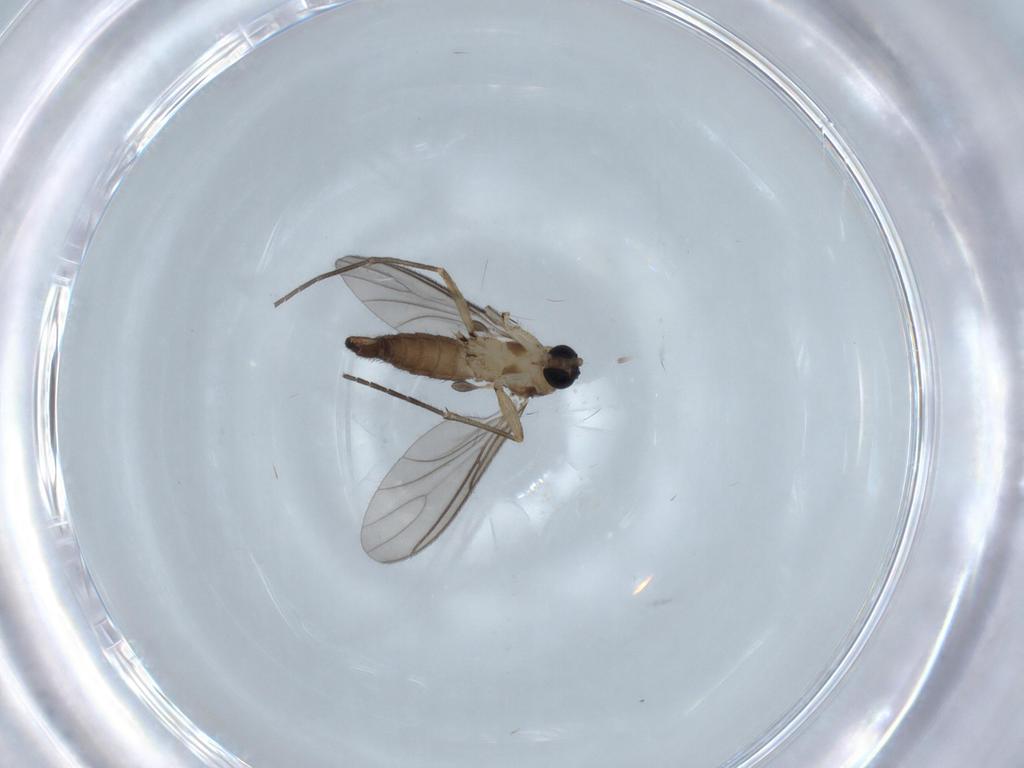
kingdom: Animalia
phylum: Arthropoda
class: Insecta
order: Diptera
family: Sciaridae
